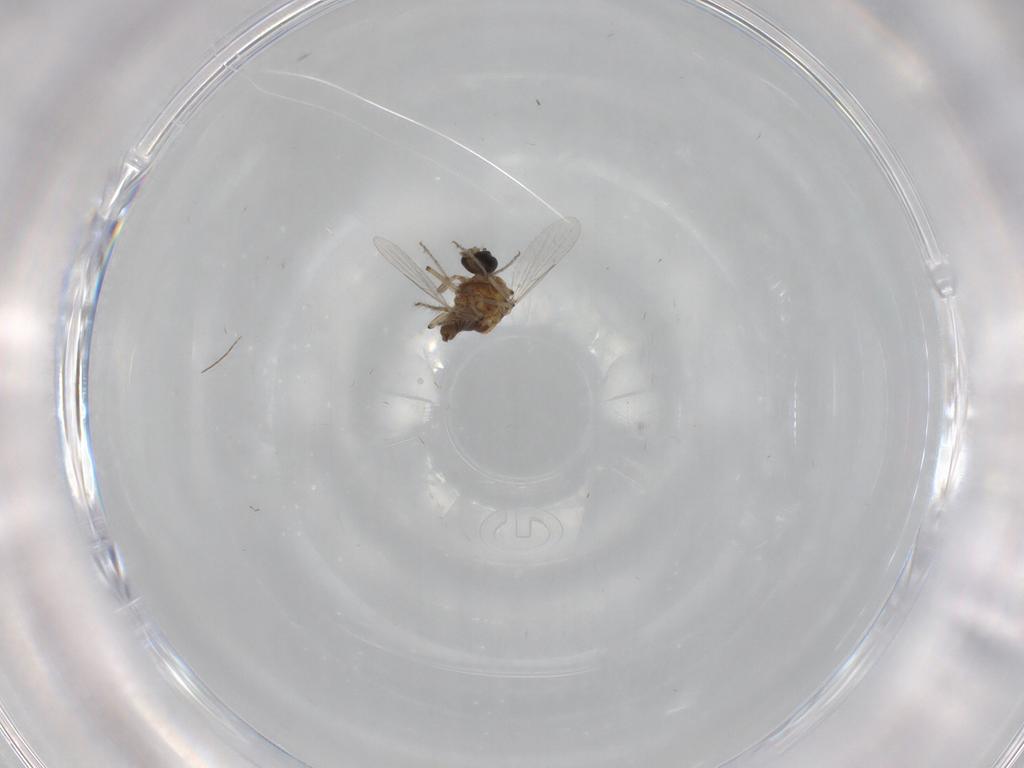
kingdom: Animalia
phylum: Arthropoda
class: Insecta
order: Diptera
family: Ceratopogonidae
